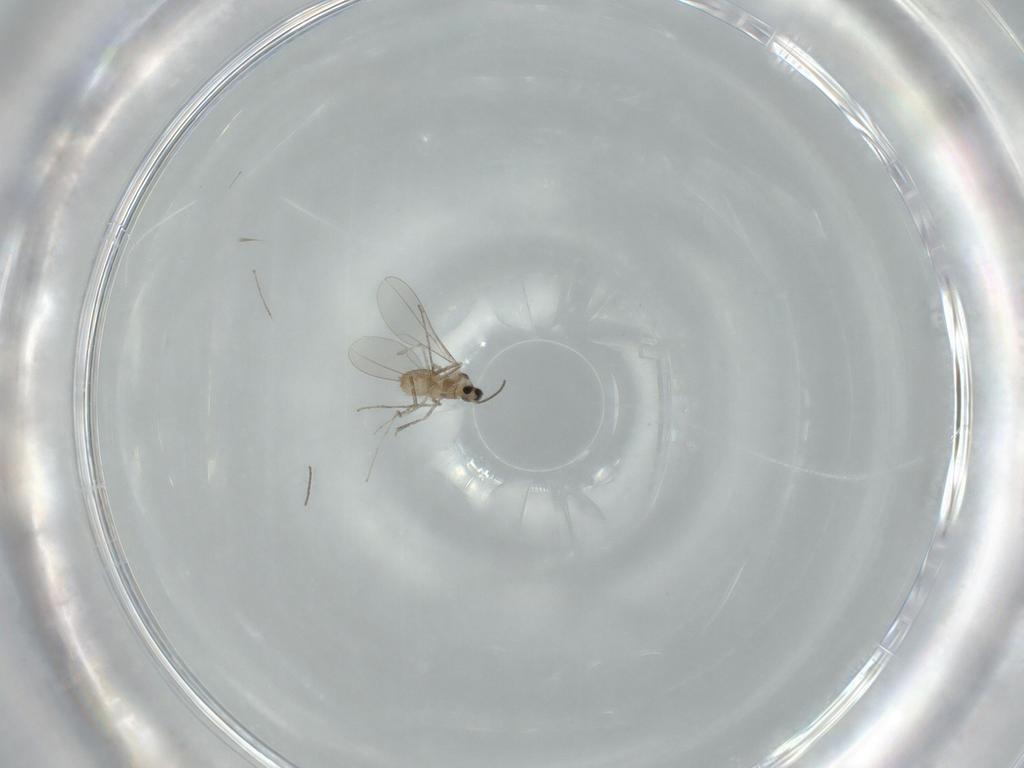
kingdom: Animalia
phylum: Arthropoda
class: Insecta
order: Diptera
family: Cecidomyiidae
